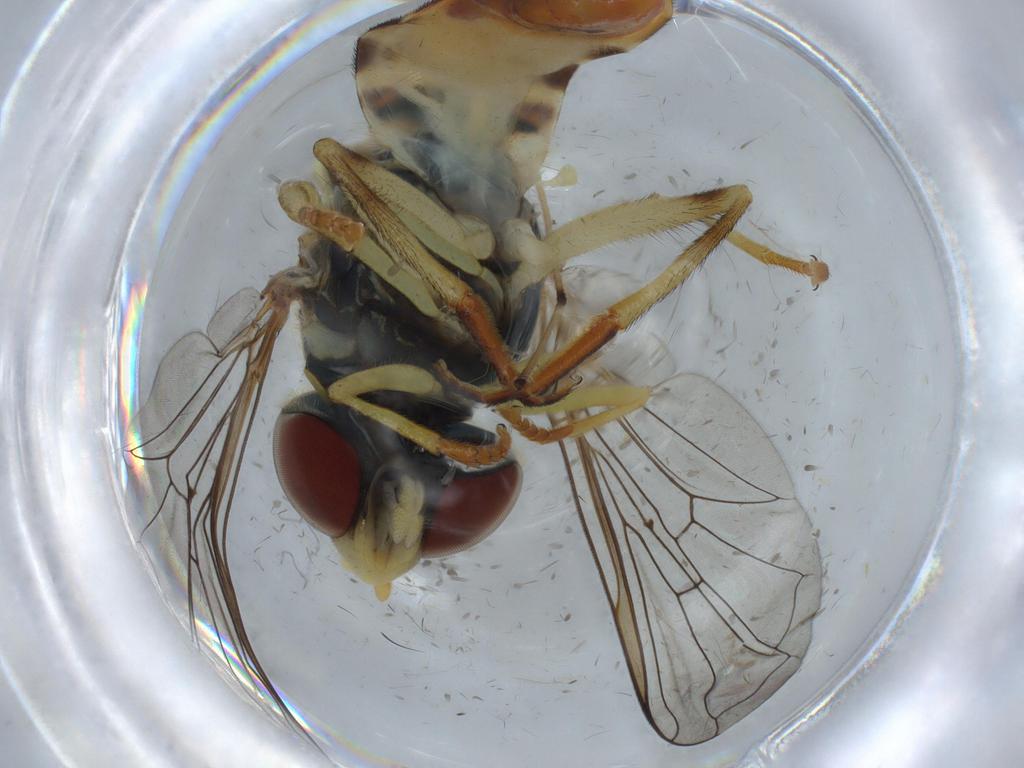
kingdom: Animalia
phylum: Arthropoda
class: Insecta
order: Diptera
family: Syrphidae
